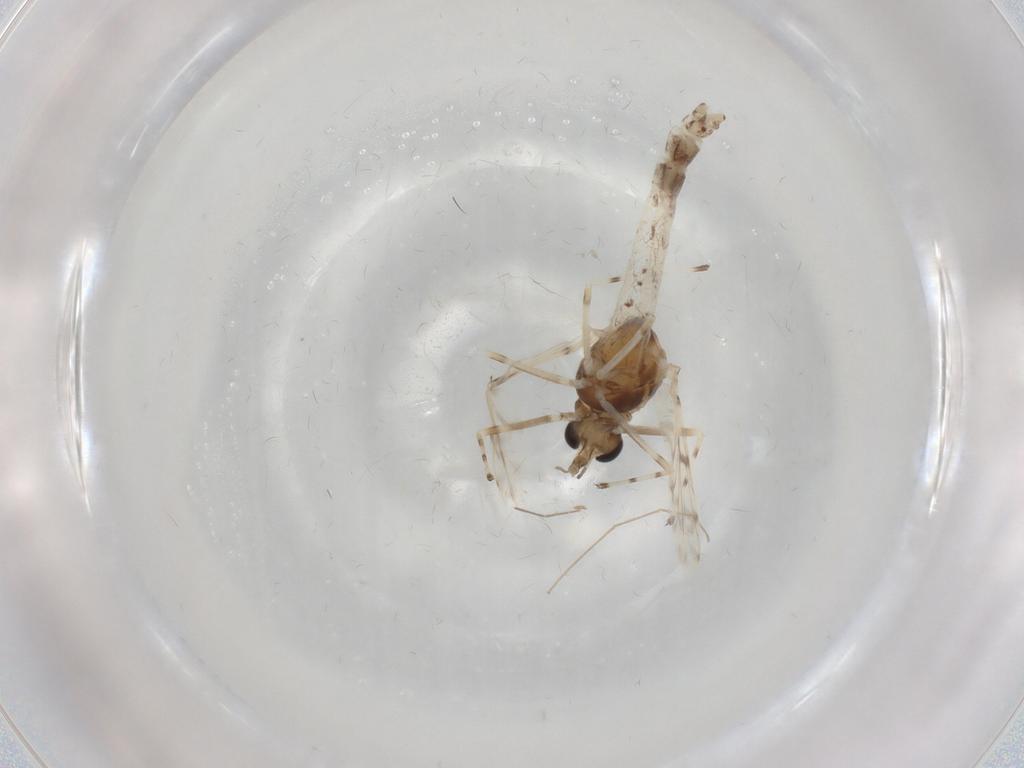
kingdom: Animalia
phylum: Arthropoda
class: Insecta
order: Diptera
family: Chironomidae
